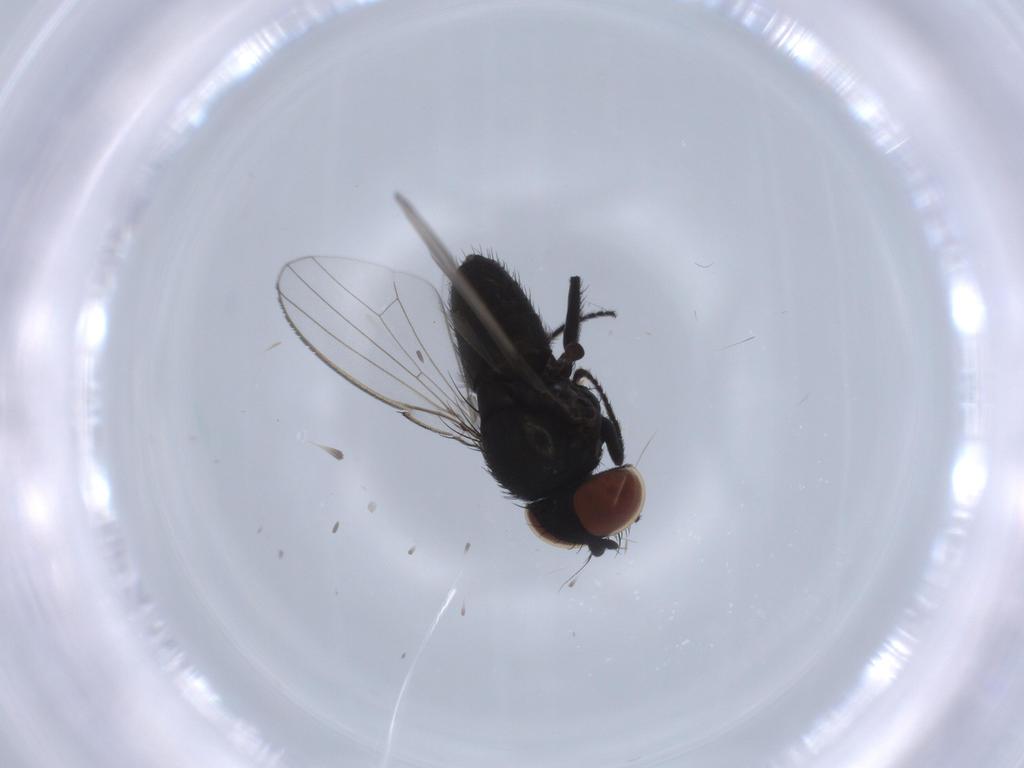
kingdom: Animalia
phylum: Arthropoda
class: Insecta
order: Diptera
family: Milichiidae
